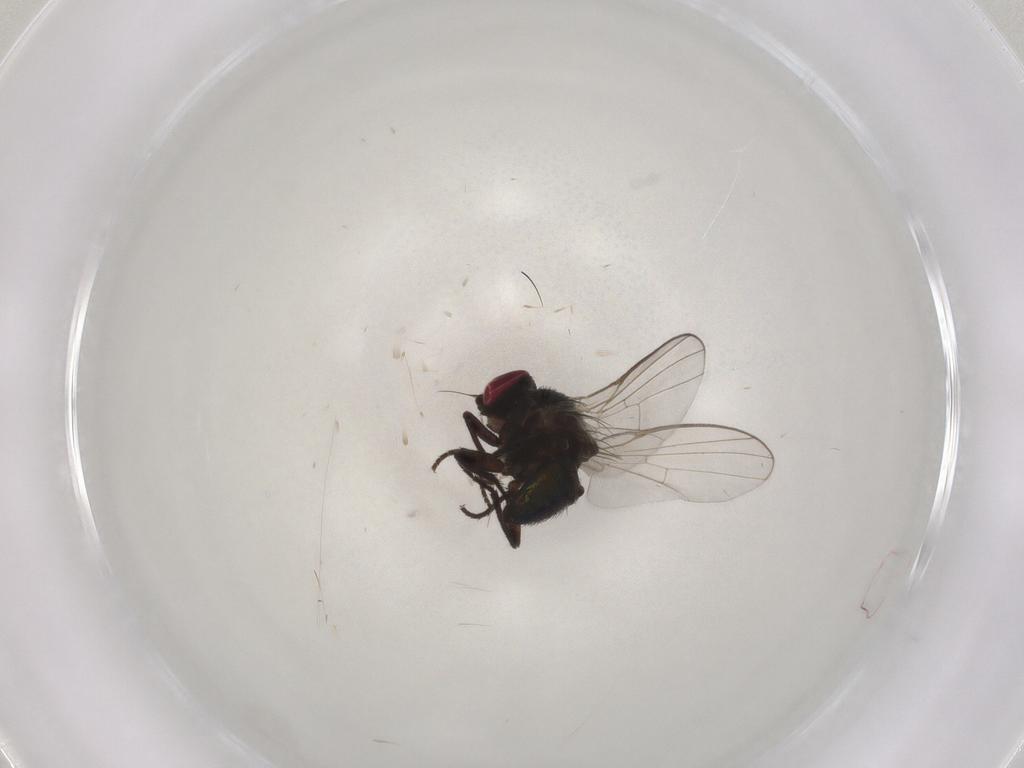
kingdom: Animalia
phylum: Arthropoda
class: Insecta
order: Diptera
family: Agromyzidae
